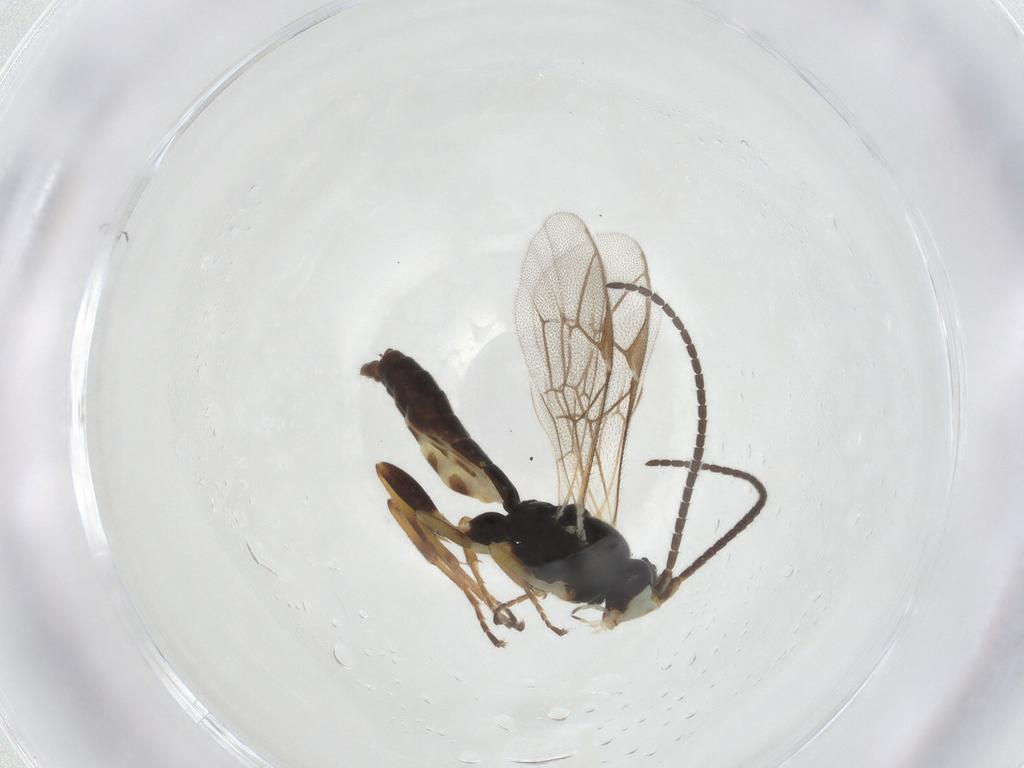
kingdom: Animalia
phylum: Arthropoda
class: Insecta
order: Hymenoptera
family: Ichneumonidae
